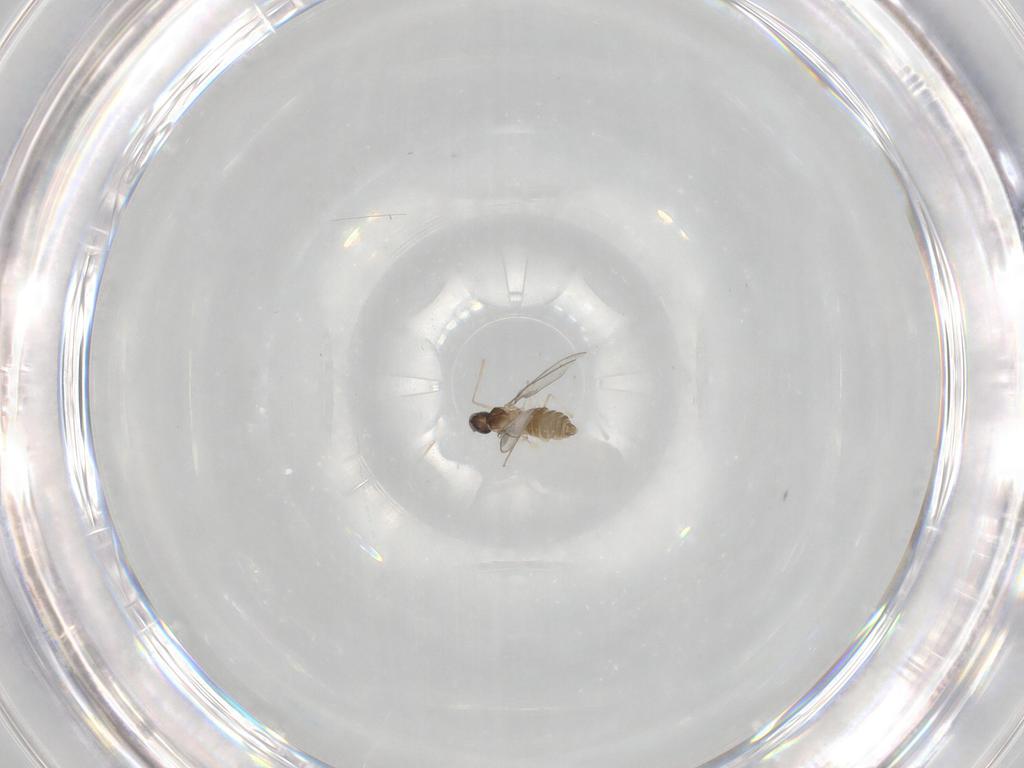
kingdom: Animalia
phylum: Arthropoda
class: Insecta
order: Diptera
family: Cecidomyiidae
